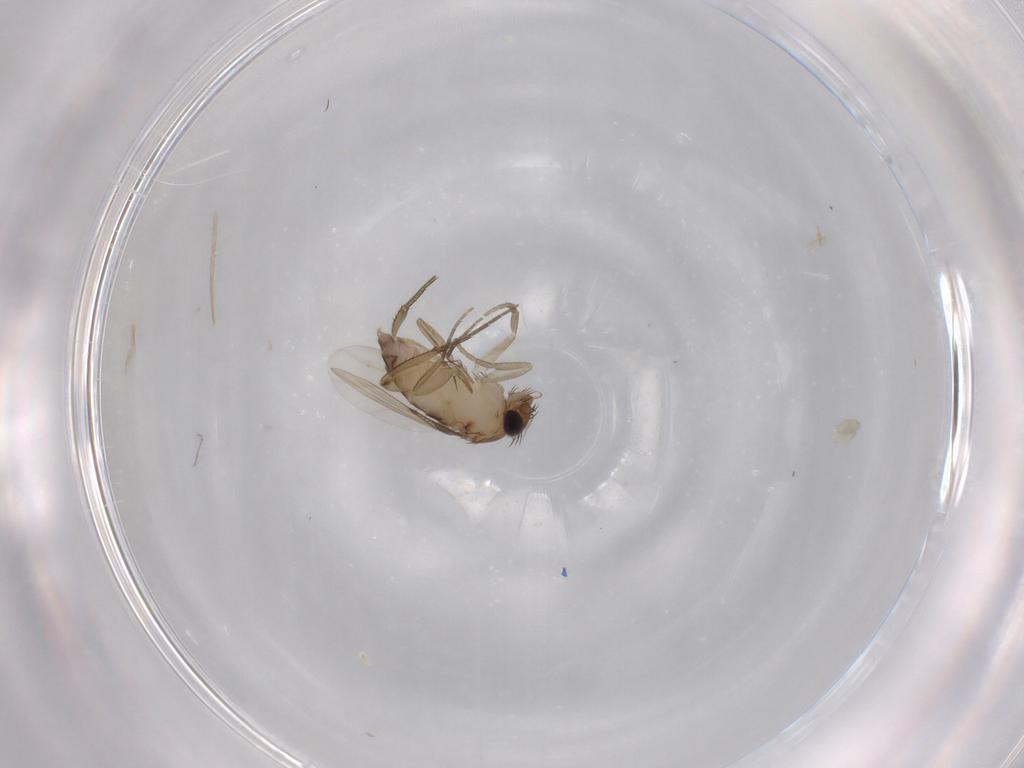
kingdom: Animalia
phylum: Arthropoda
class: Insecta
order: Diptera
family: Phoridae
